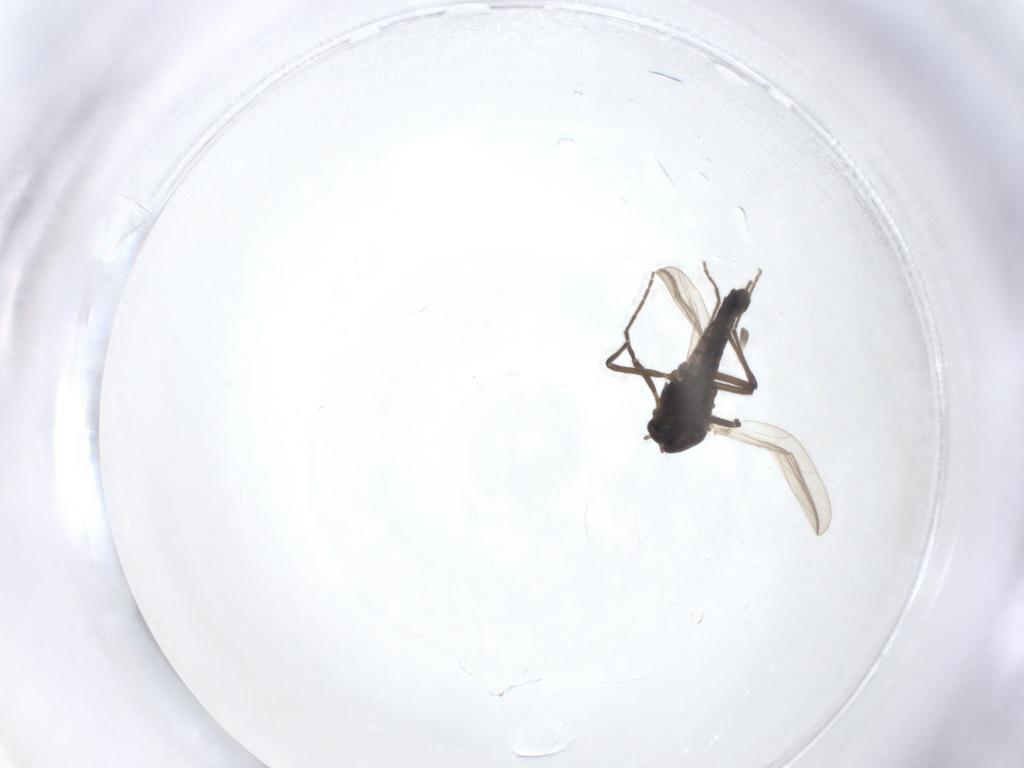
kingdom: Animalia
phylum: Arthropoda
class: Insecta
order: Diptera
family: Chironomidae
